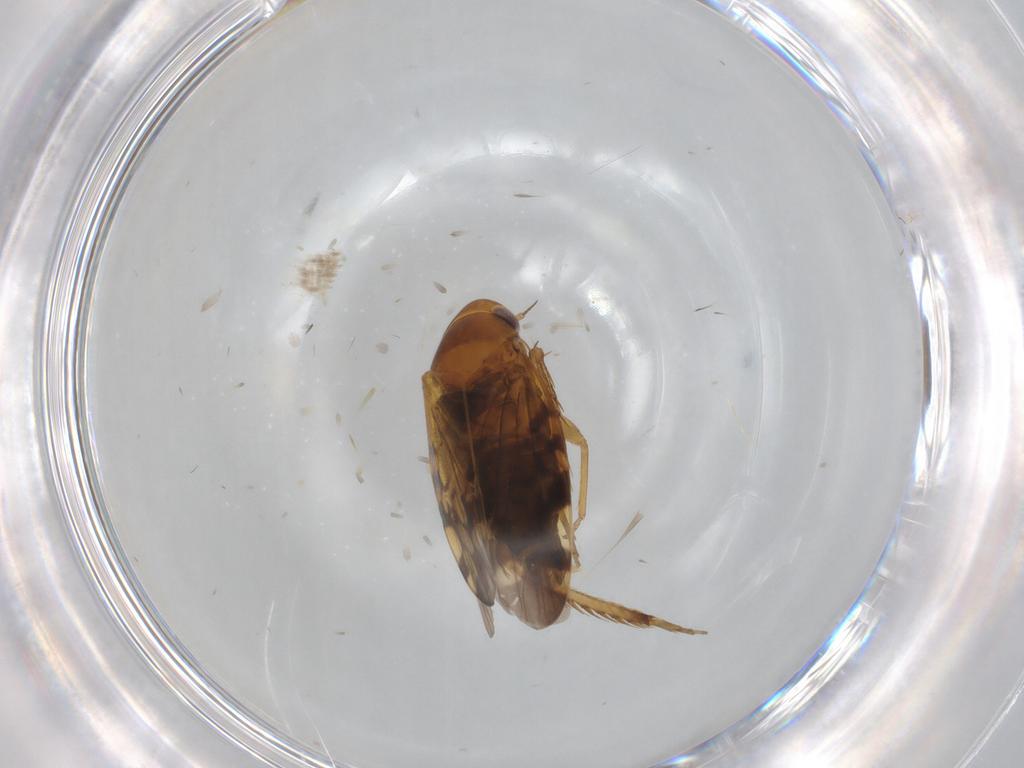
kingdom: Animalia
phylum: Arthropoda
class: Insecta
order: Hemiptera
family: Cicadellidae
